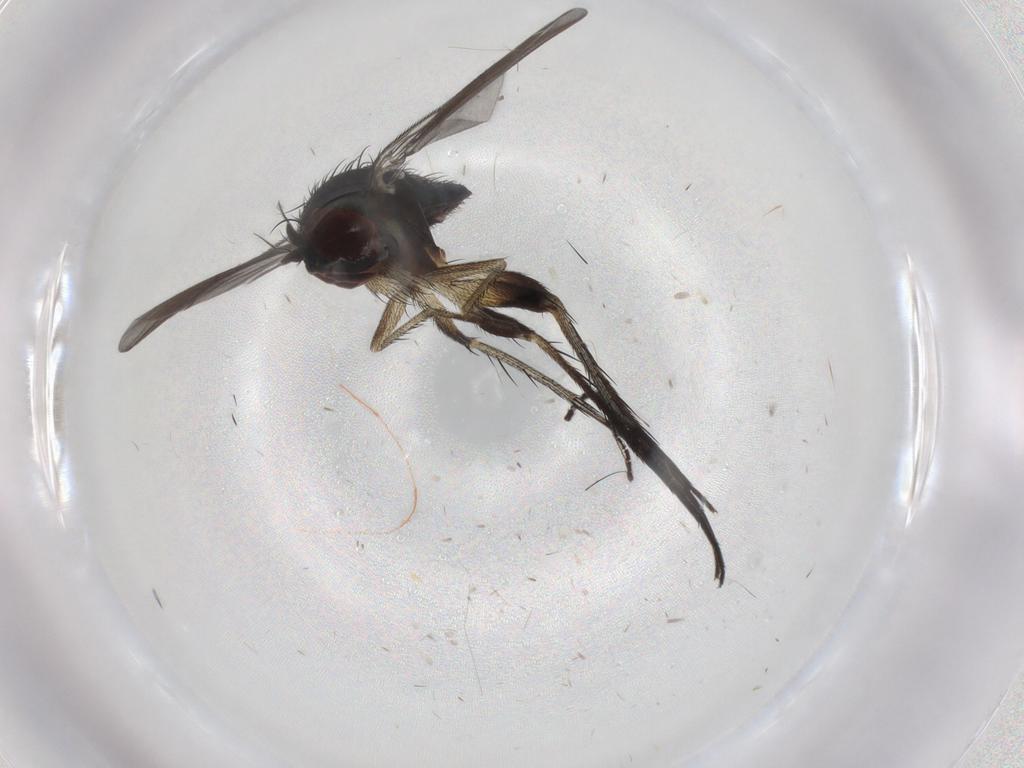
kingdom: Animalia
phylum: Arthropoda
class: Insecta
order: Diptera
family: Dolichopodidae
